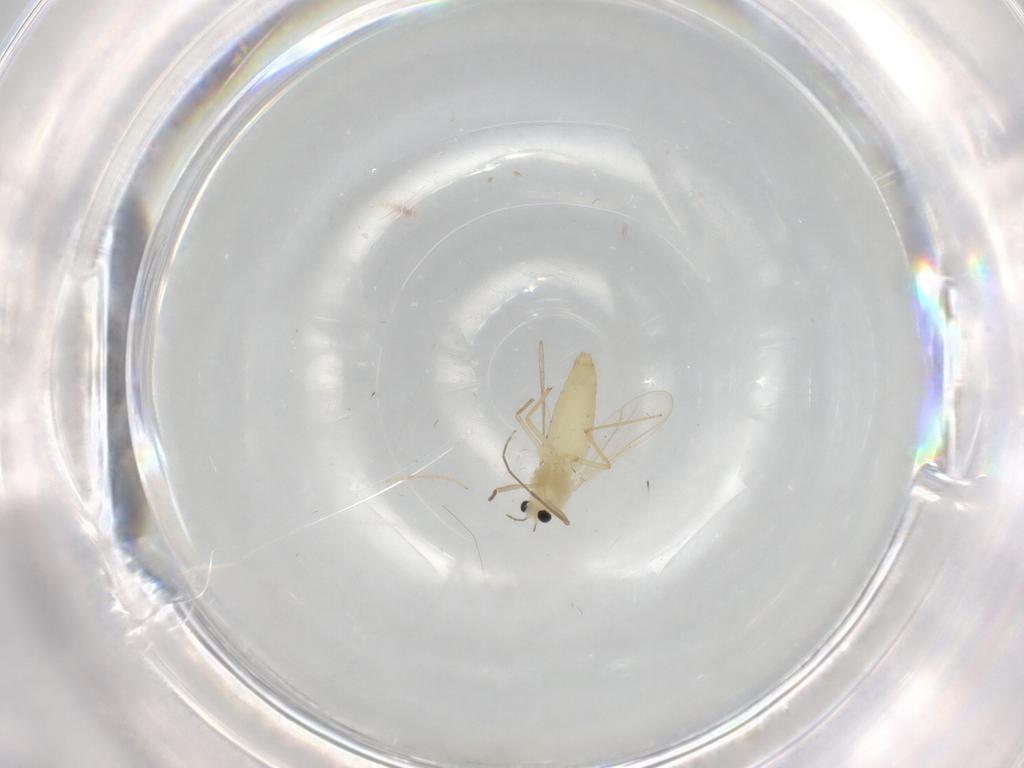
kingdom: Animalia
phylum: Arthropoda
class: Insecta
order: Diptera
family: Chironomidae
